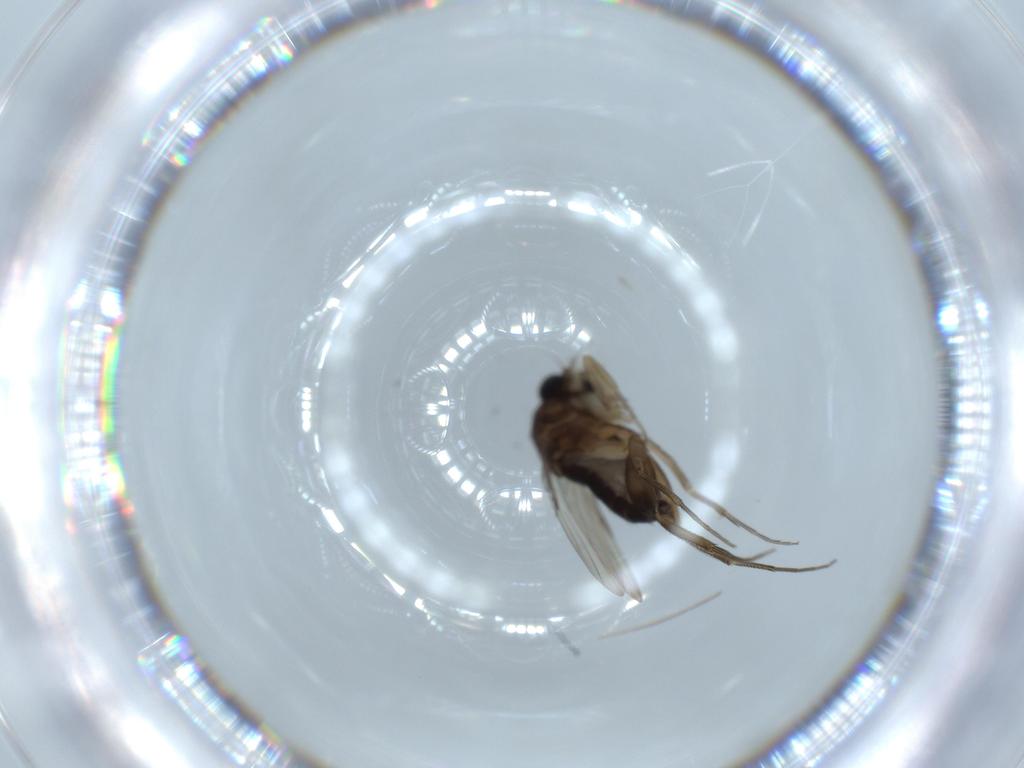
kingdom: Animalia
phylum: Arthropoda
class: Insecta
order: Diptera
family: Phoridae
